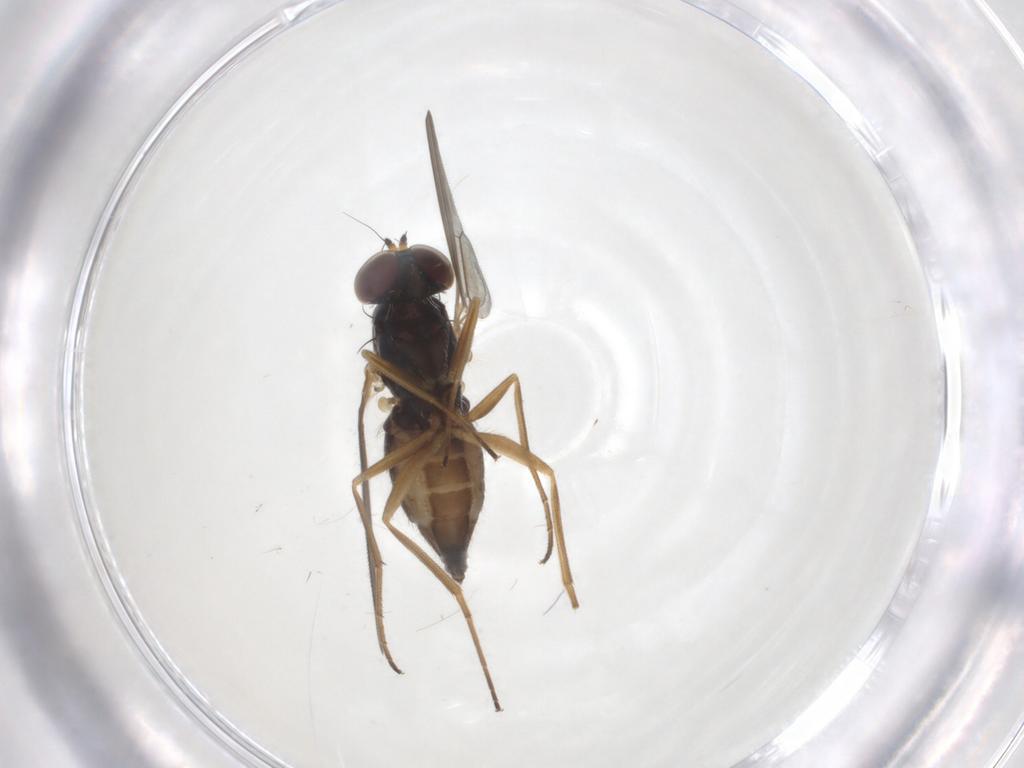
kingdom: Animalia
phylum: Arthropoda
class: Insecta
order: Diptera
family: Dolichopodidae
